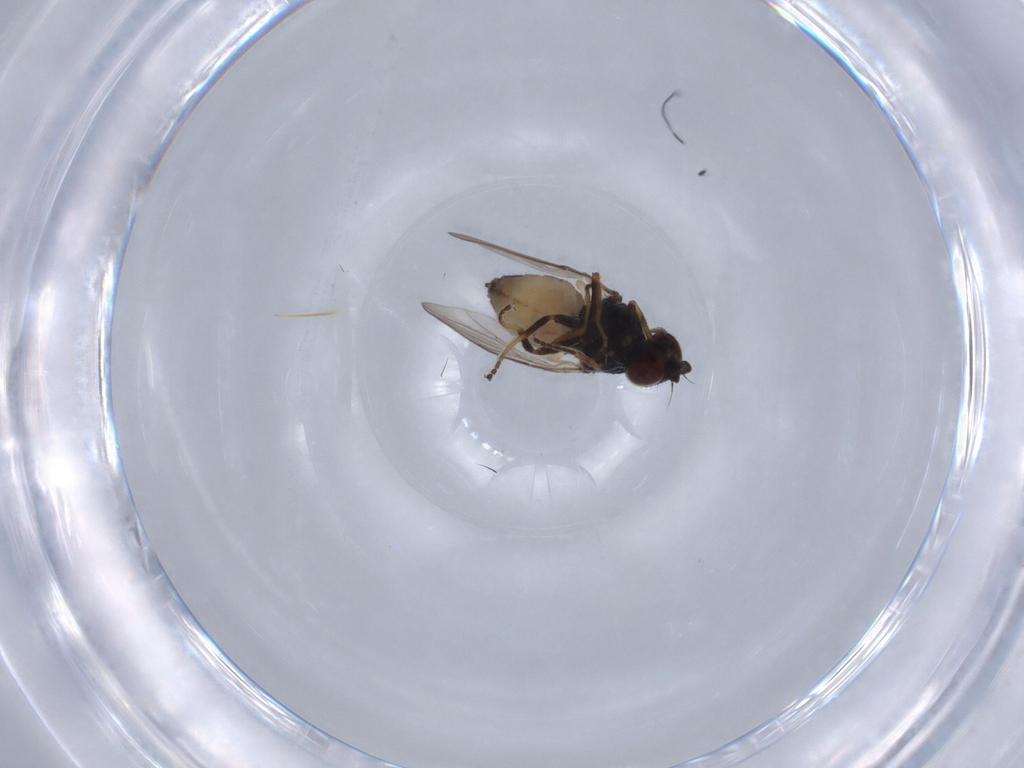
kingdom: Animalia
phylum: Arthropoda
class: Insecta
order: Diptera
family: Chloropidae
